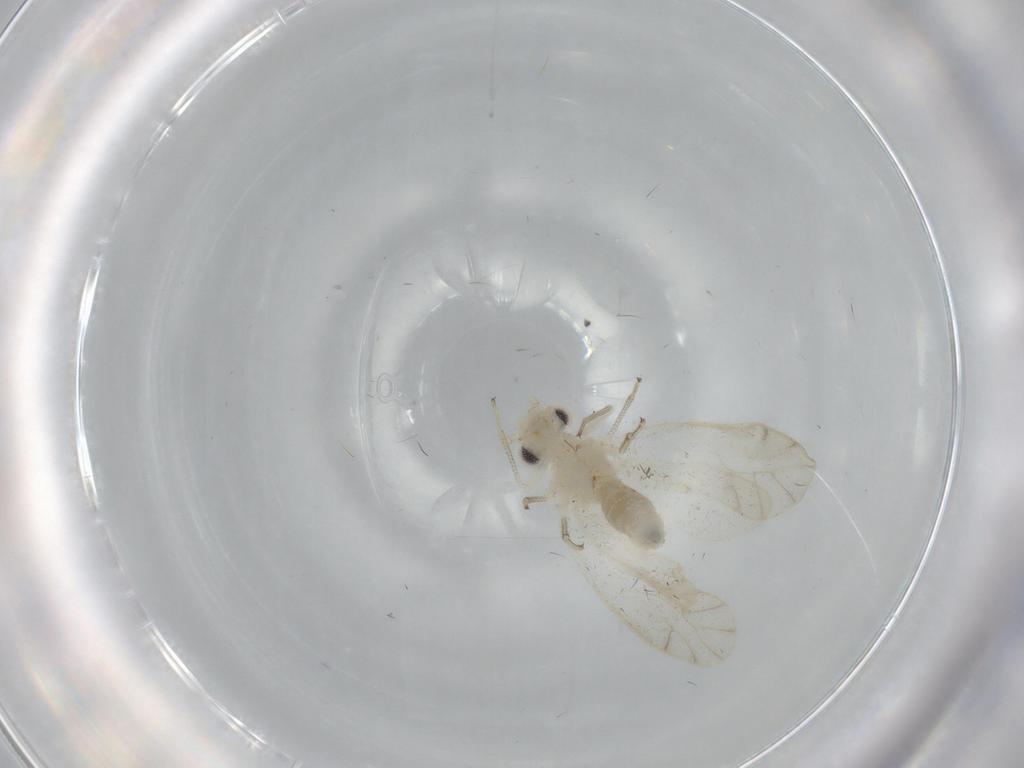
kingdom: Animalia
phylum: Arthropoda
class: Insecta
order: Psocodea
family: Caeciliusidae
